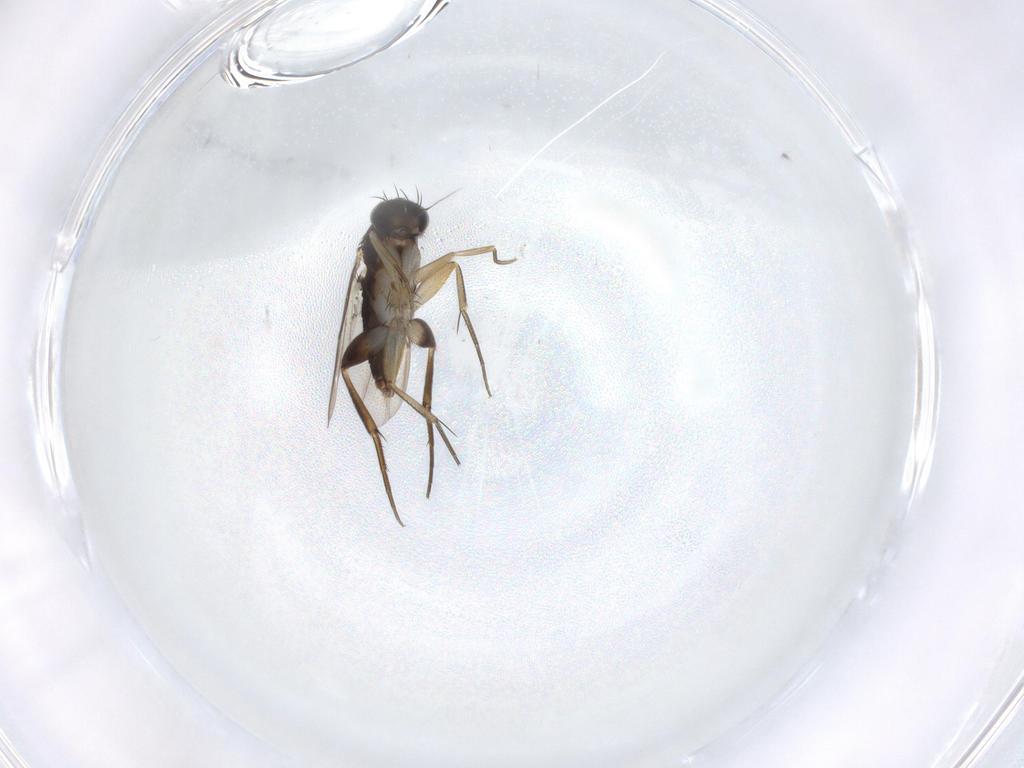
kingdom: Animalia
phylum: Arthropoda
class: Insecta
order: Diptera
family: Phoridae
